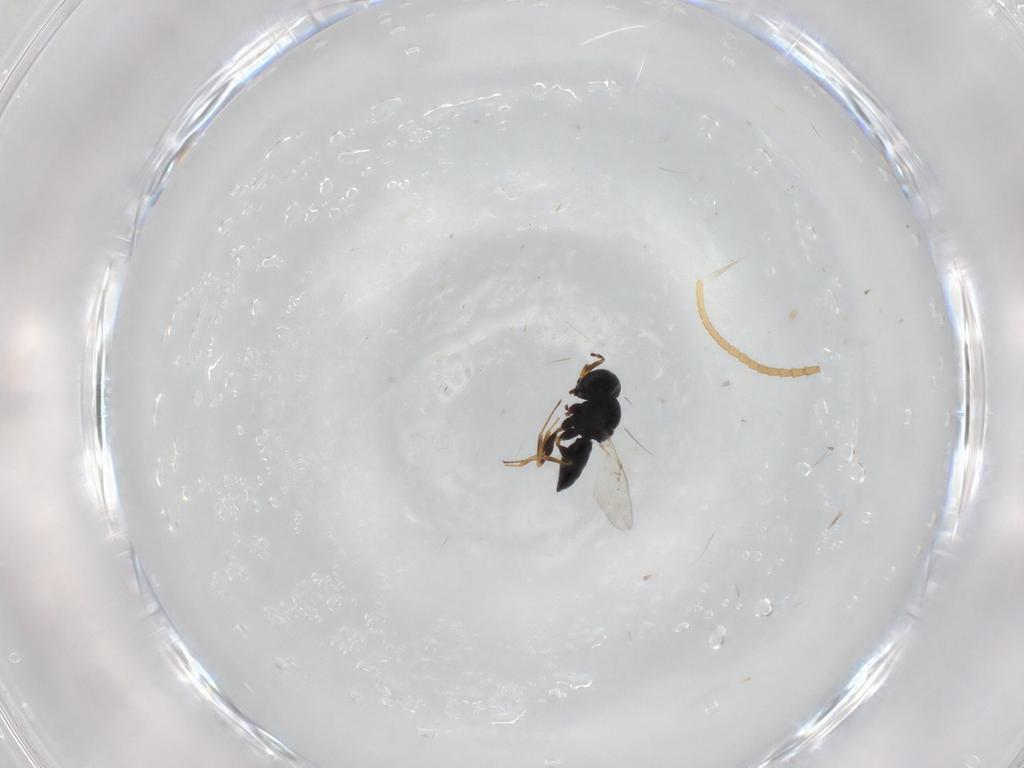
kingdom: Animalia
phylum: Arthropoda
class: Insecta
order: Coleoptera
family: Curculionidae
